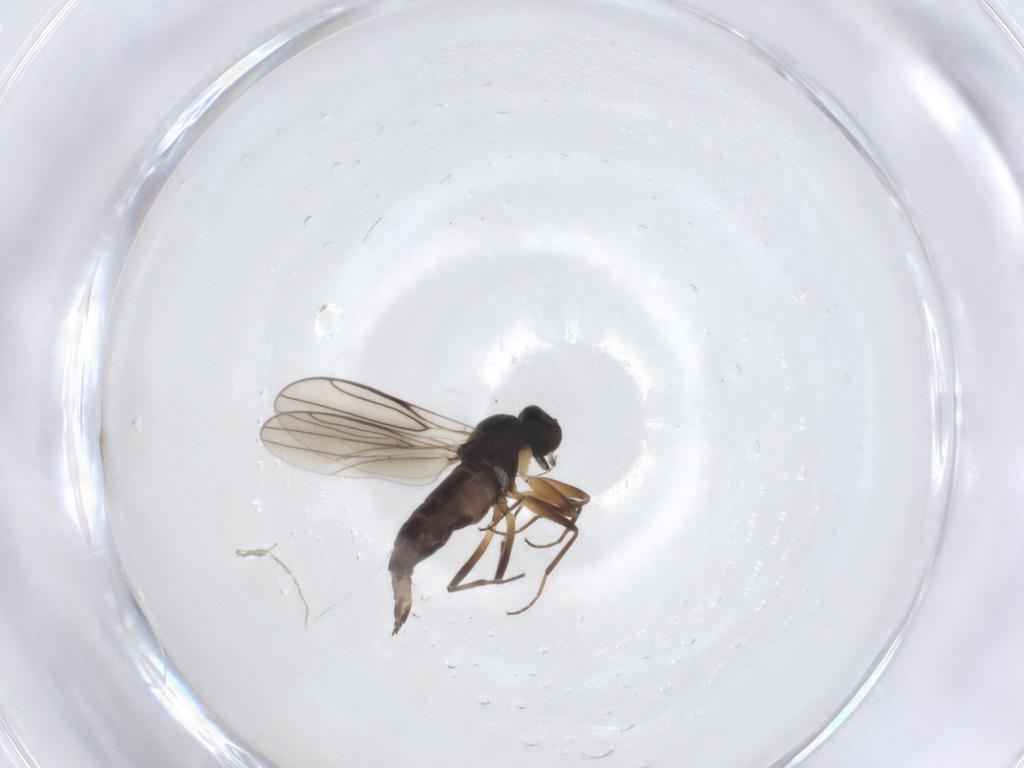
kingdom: Animalia
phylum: Arthropoda
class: Insecta
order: Diptera
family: Hybotidae
